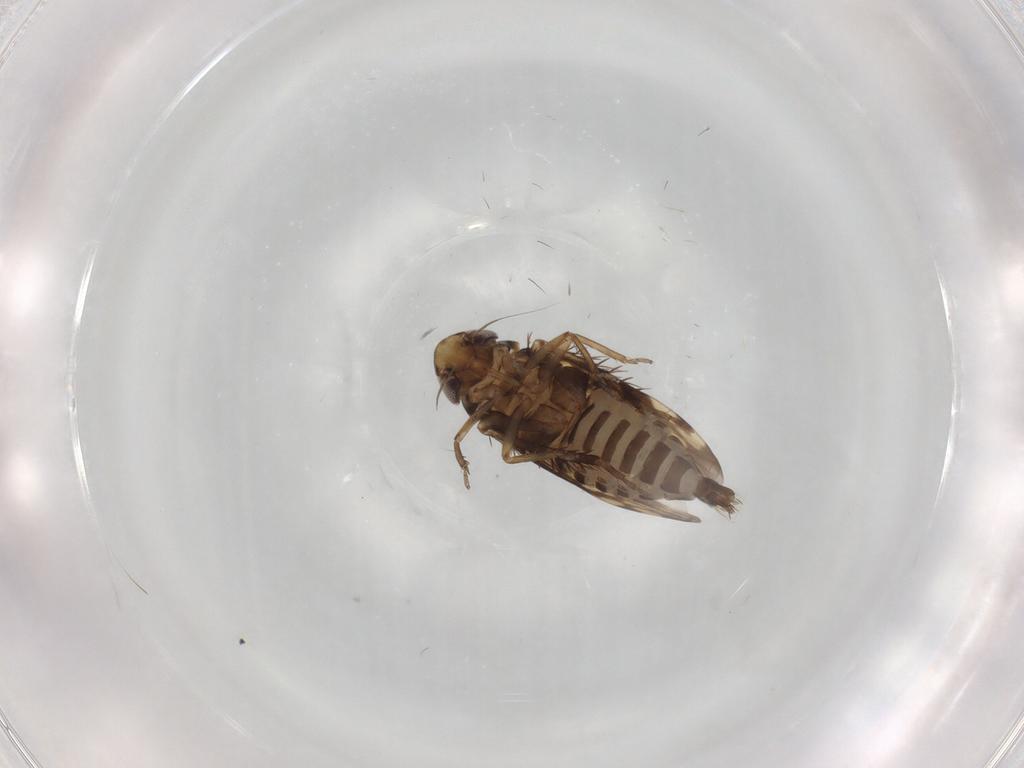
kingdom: Animalia
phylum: Arthropoda
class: Insecta
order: Hemiptera
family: Cicadellidae
